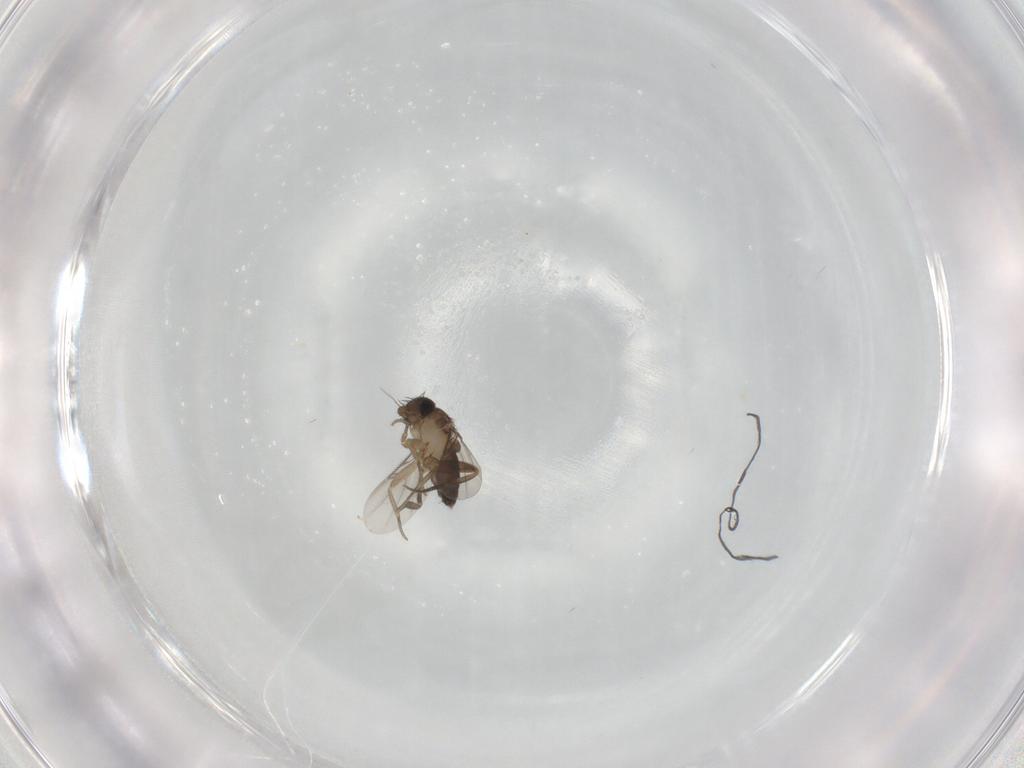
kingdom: Animalia
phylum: Arthropoda
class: Insecta
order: Diptera
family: Phoridae
